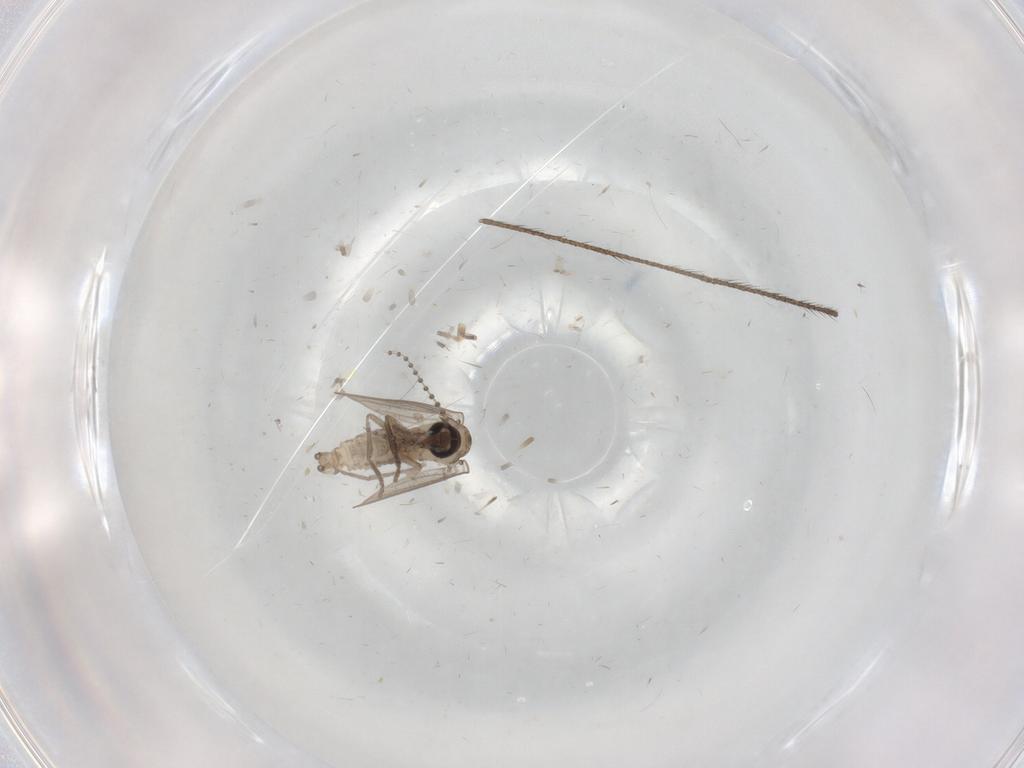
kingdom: Animalia
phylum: Arthropoda
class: Insecta
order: Diptera
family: Psychodidae
